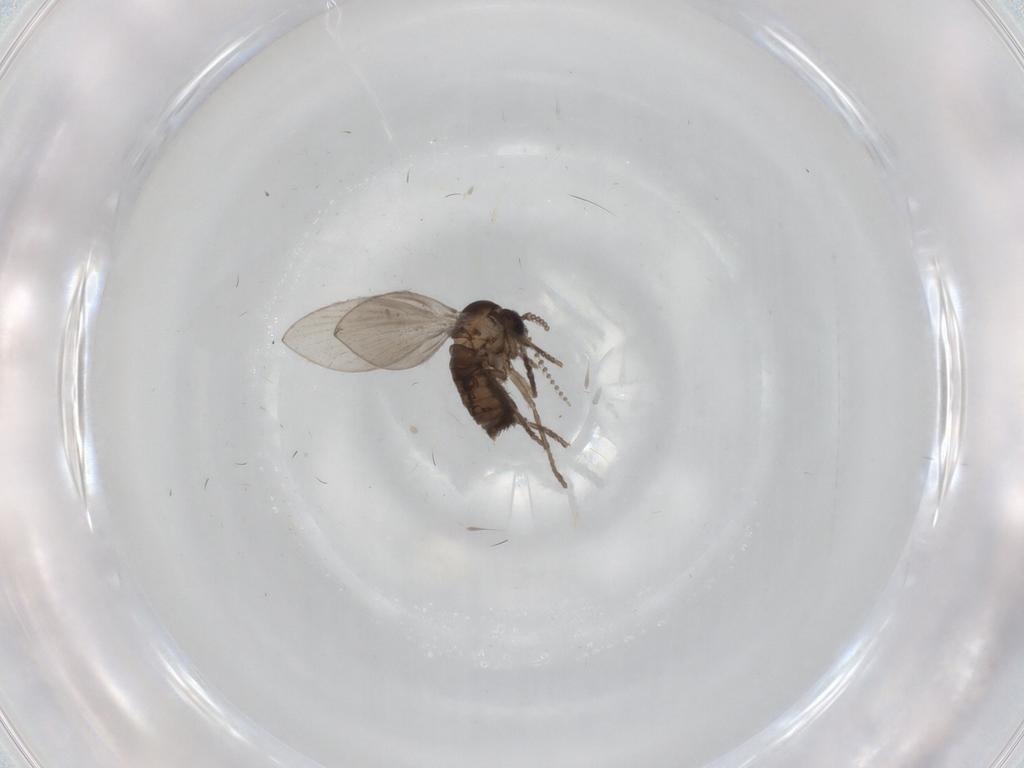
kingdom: Animalia
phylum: Arthropoda
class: Insecta
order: Diptera
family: Psychodidae
